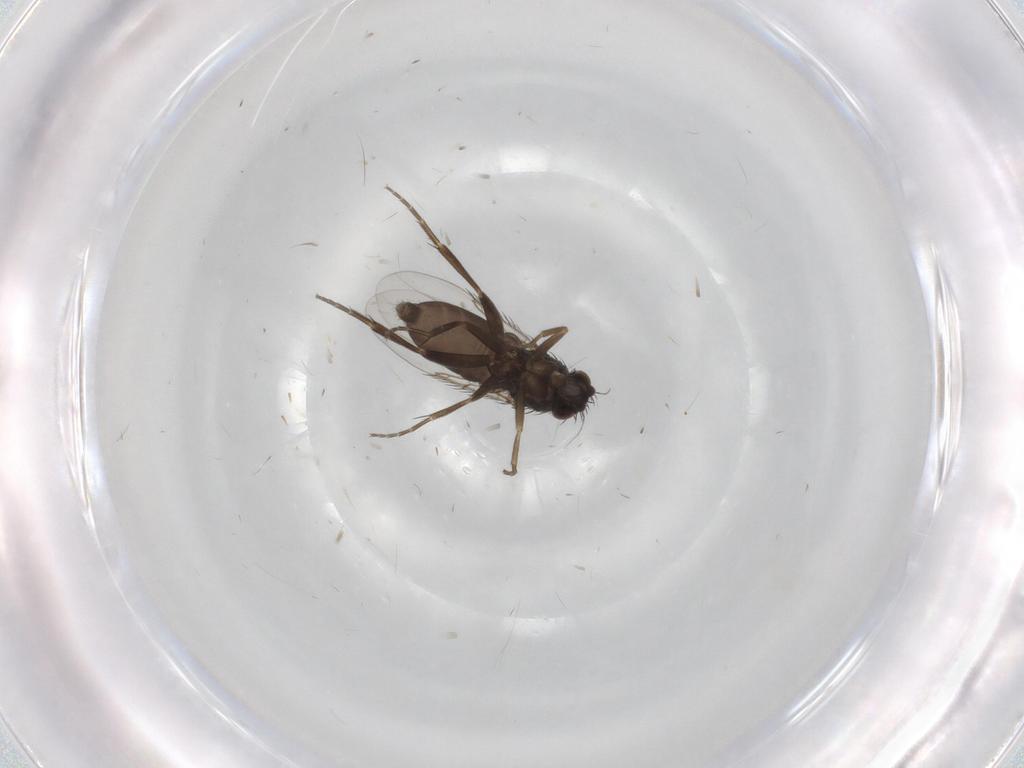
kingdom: Animalia
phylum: Arthropoda
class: Insecta
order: Diptera
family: Phoridae
